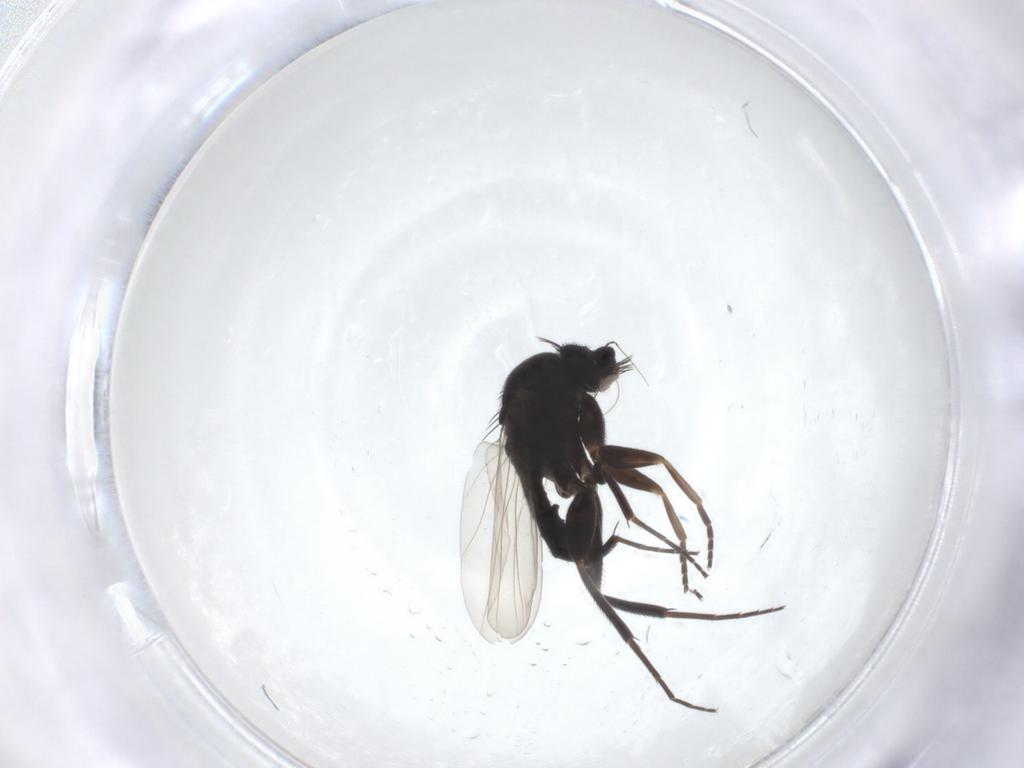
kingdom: Animalia
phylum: Arthropoda
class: Insecta
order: Diptera
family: Phoridae
